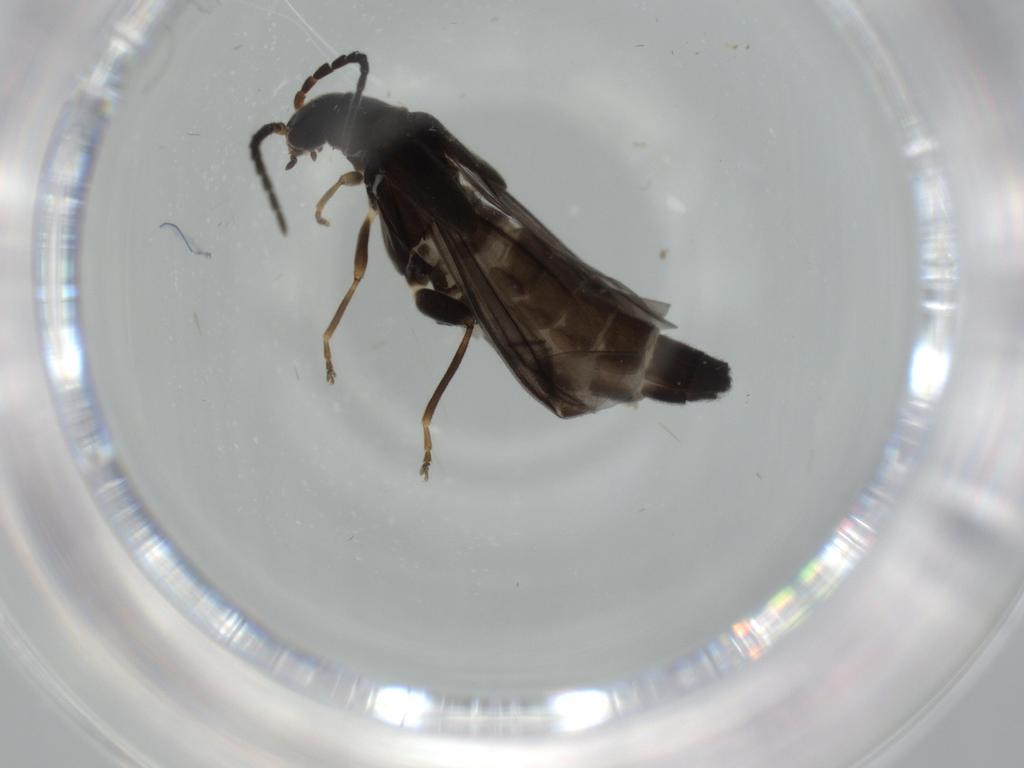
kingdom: Animalia
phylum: Arthropoda
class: Insecta
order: Coleoptera
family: Cantharidae
